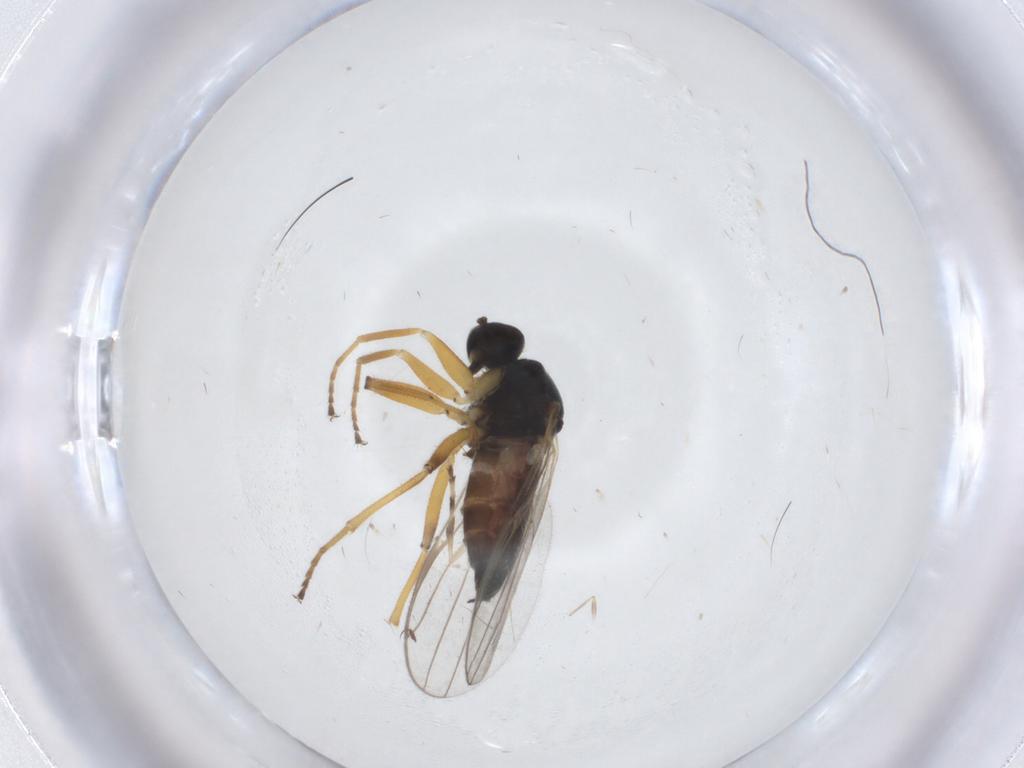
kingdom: Animalia
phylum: Arthropoda
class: Insecta
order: Diptera
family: Hybotidae
